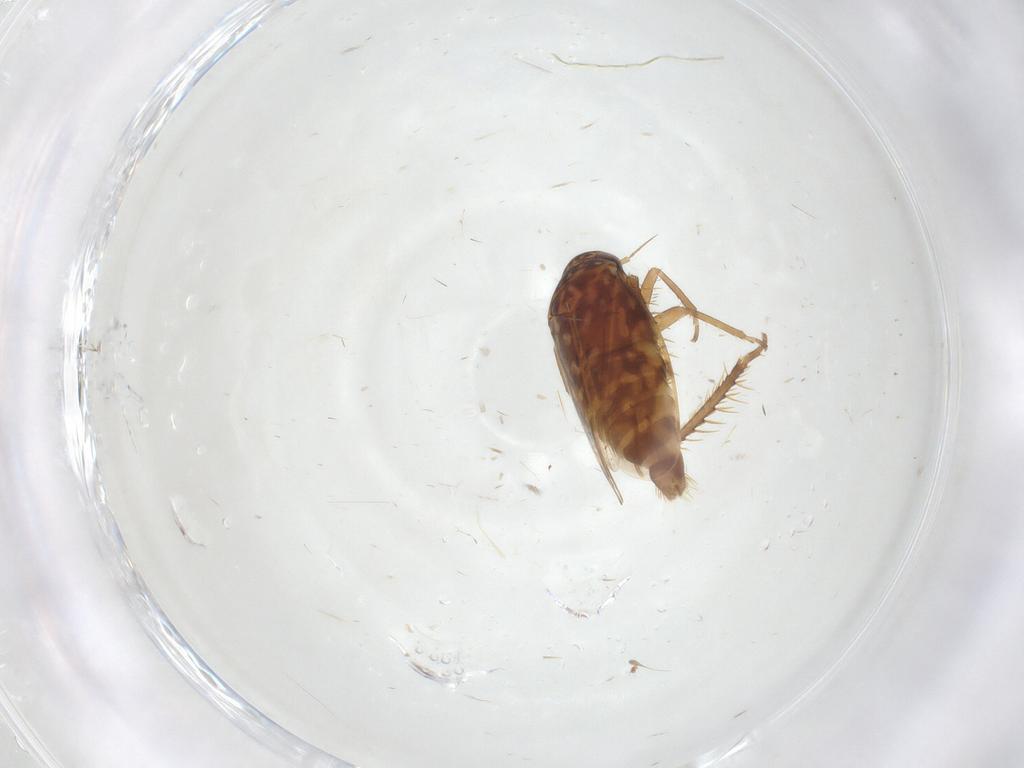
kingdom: Animalia
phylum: Arthropoda
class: Insecta
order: Hemiptera
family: Cicadellidae
